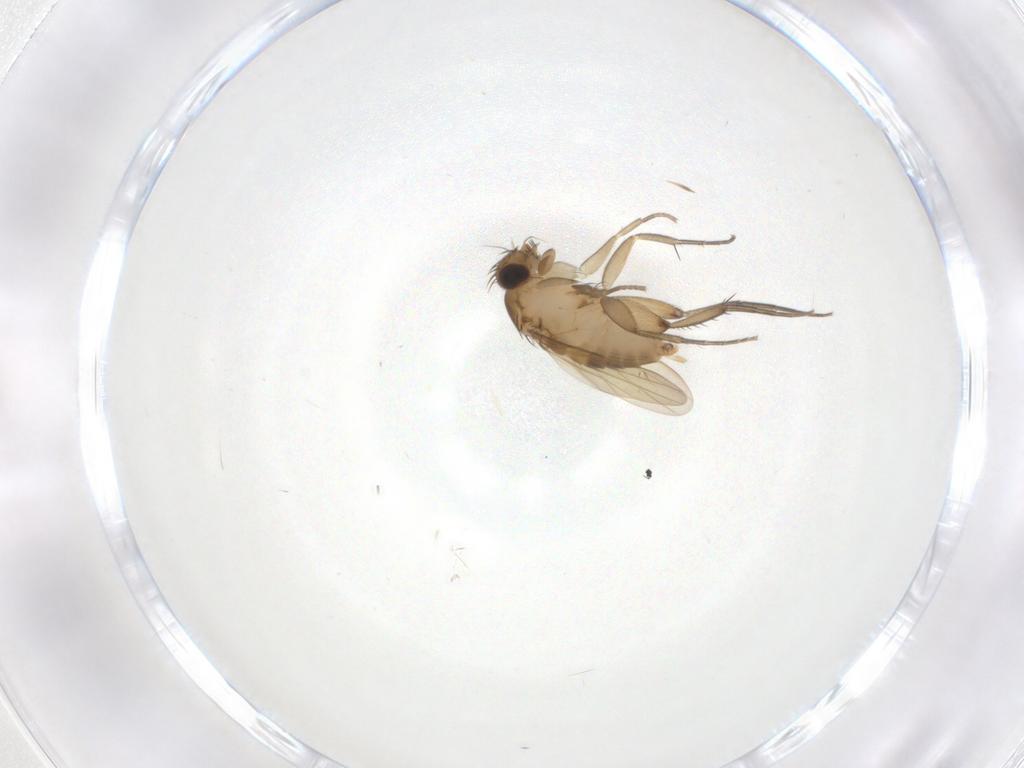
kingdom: Animalia
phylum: Arthropoda
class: Insecta
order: Diptera
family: Phoridae
